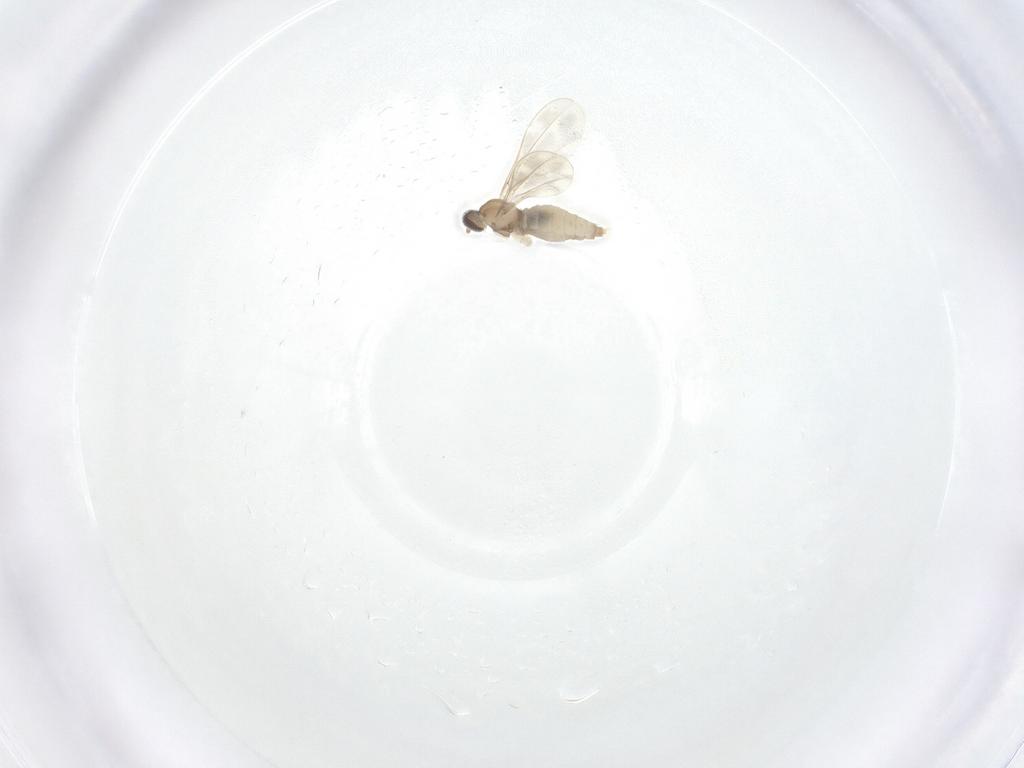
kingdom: Animalia
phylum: Arthropoda
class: Insecta
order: Diptera
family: Cecidomyiidae
